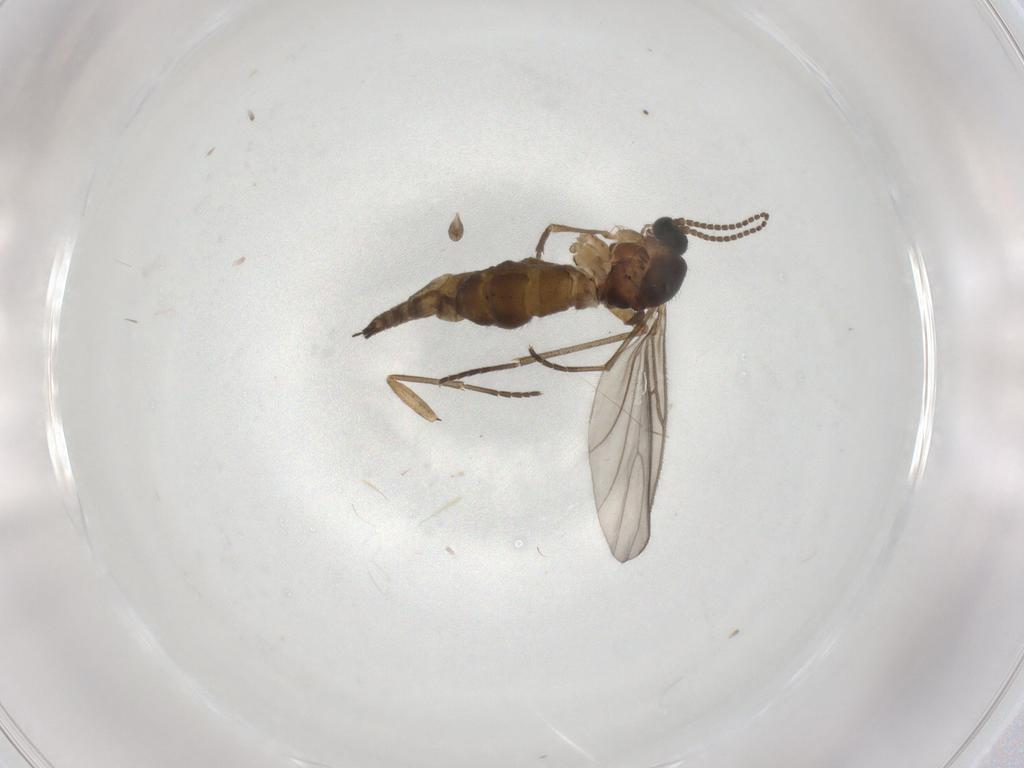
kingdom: Animalia
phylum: Arthropoda
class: Insecta
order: Diptera
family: Sciaridae
